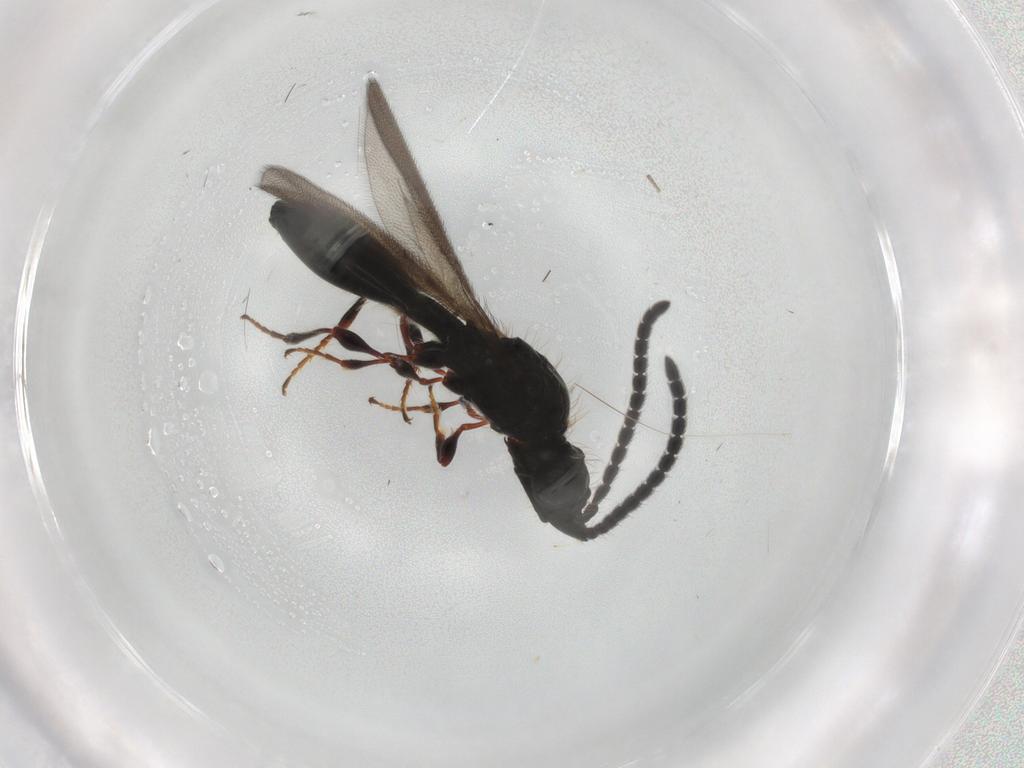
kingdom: Animalia
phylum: Arthropoda
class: Insecta
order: Hymenoptera
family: Diapriidae
